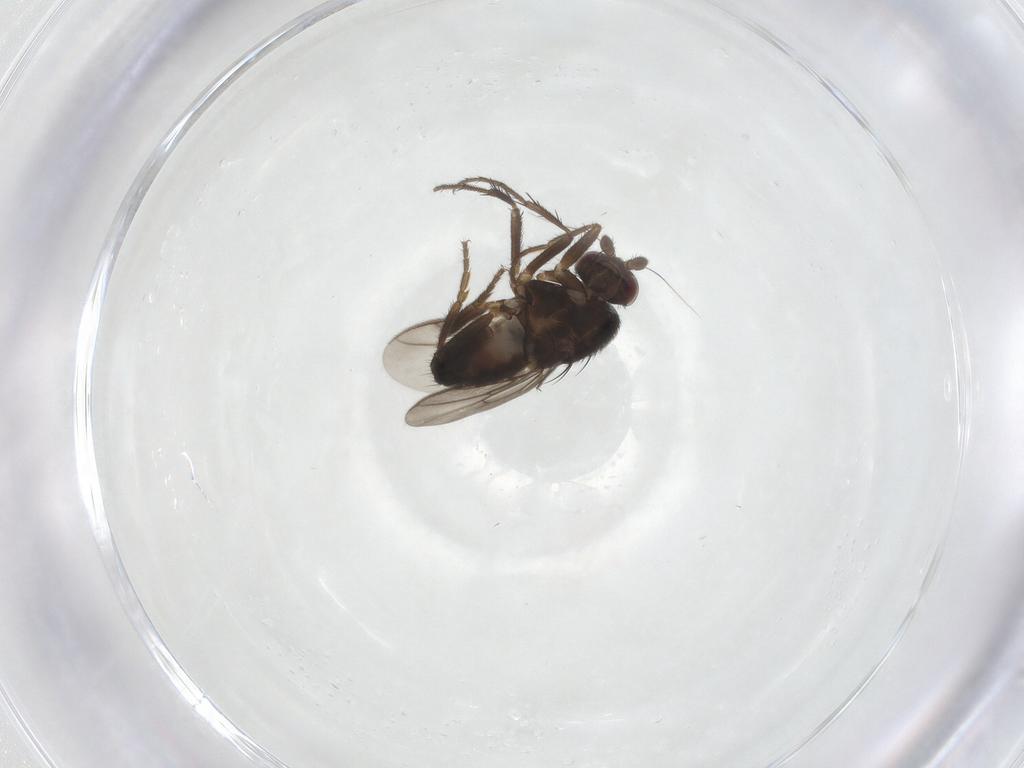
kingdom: Animalia
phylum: Arthropoda
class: Insecta
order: Diptera
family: Sphaeroceridae
